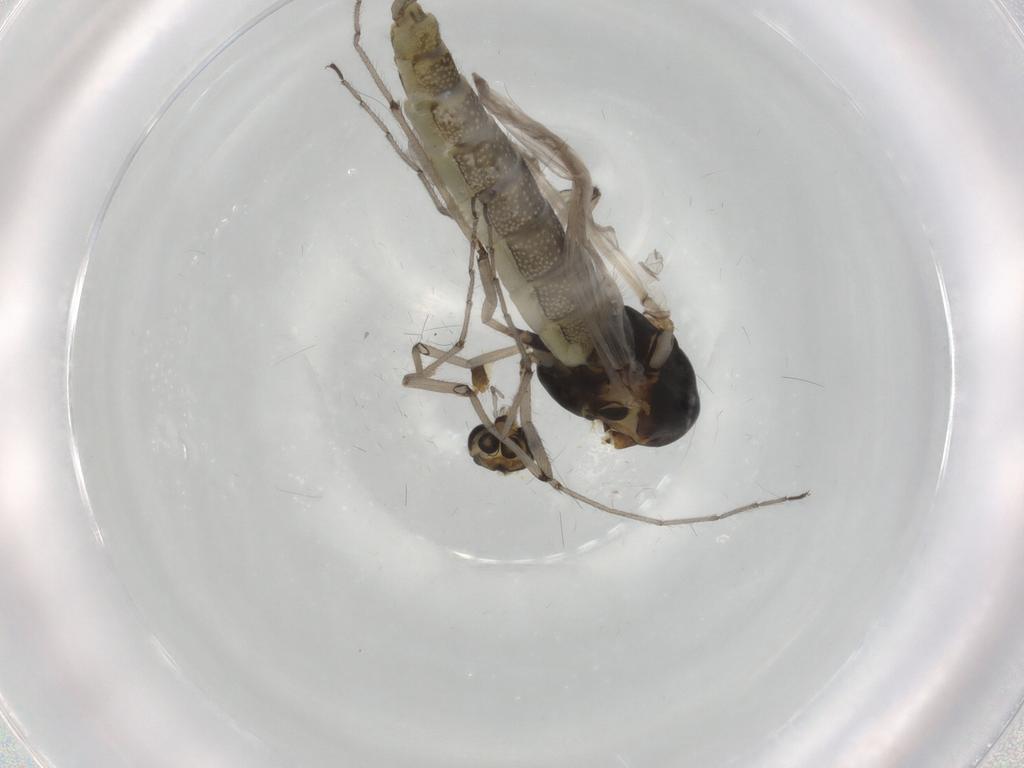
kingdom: Animalia
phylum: Arthropoda
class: Insecta
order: Diptera
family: Chironomidae
